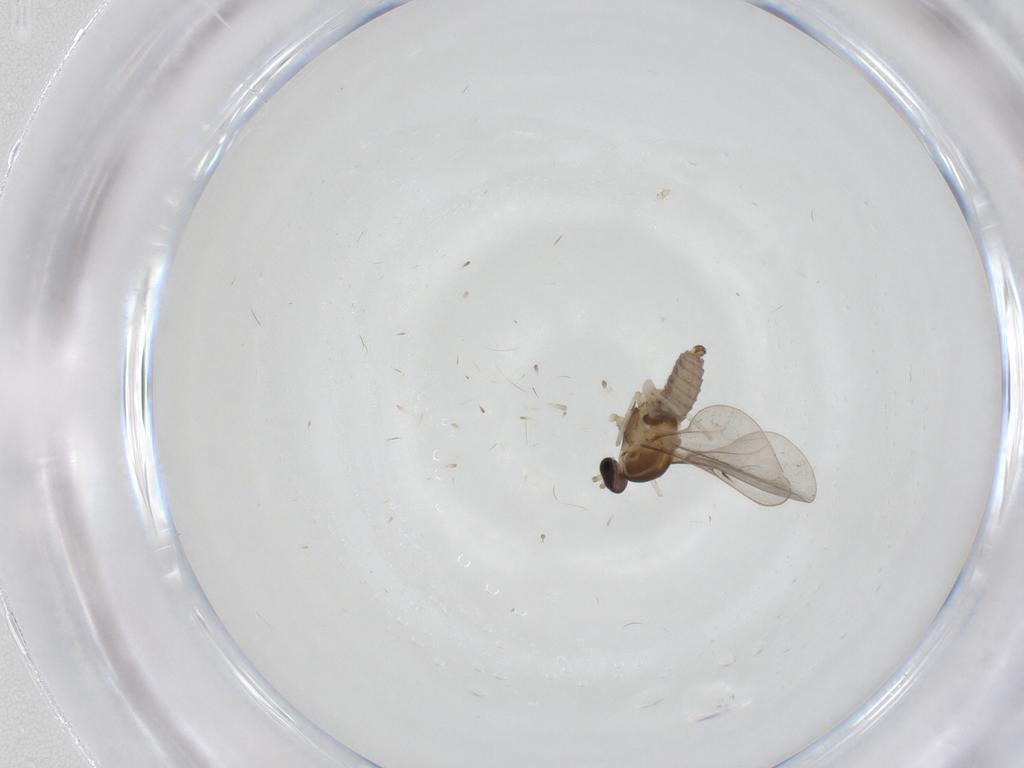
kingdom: Animalia
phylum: Arthropoda
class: Insecta
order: Diptera
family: Cecidomyiidae
